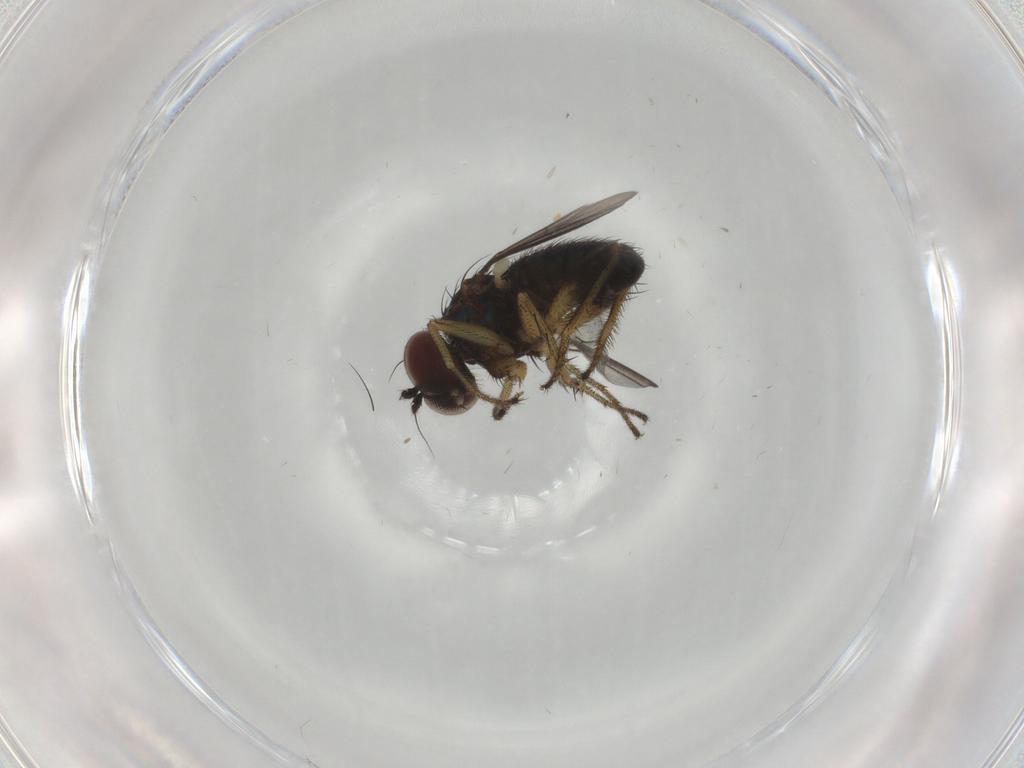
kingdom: Animalia
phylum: Arthropoda
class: Insecta
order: Diptera
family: Dolichopodidae
